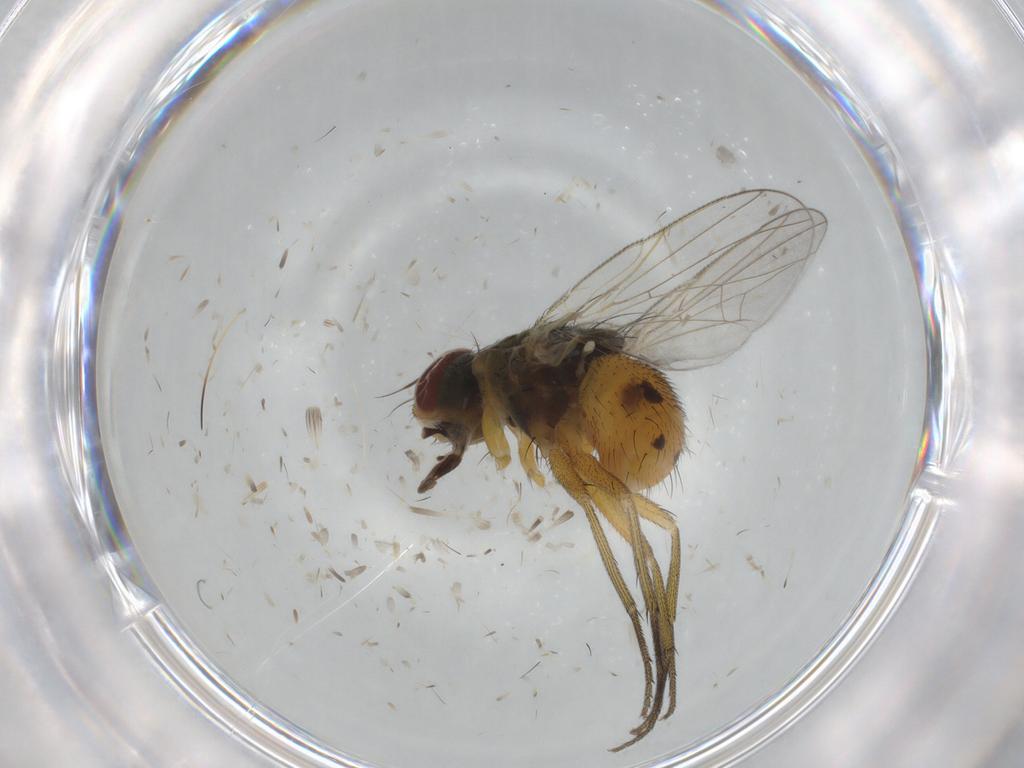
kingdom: Animalia
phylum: Arthropoda
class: Insecta
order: Diptera
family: Muscidae
